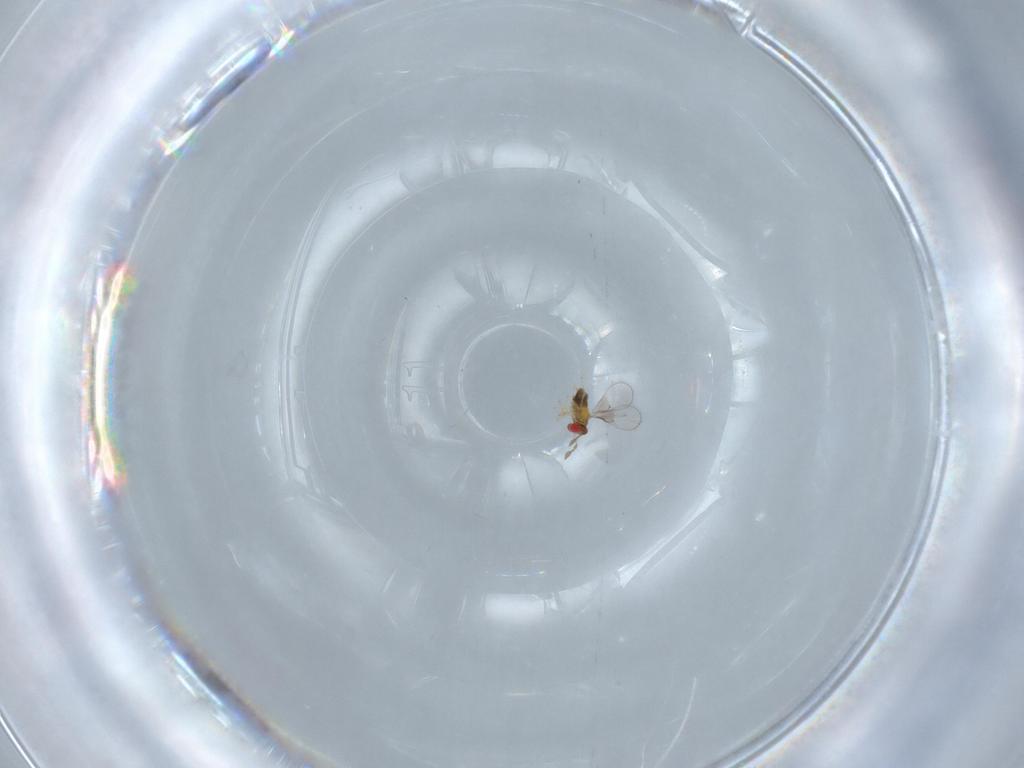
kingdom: Animalia
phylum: Arthropoda
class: Insecta
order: Hymenoptera
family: Trichogrammatidae
